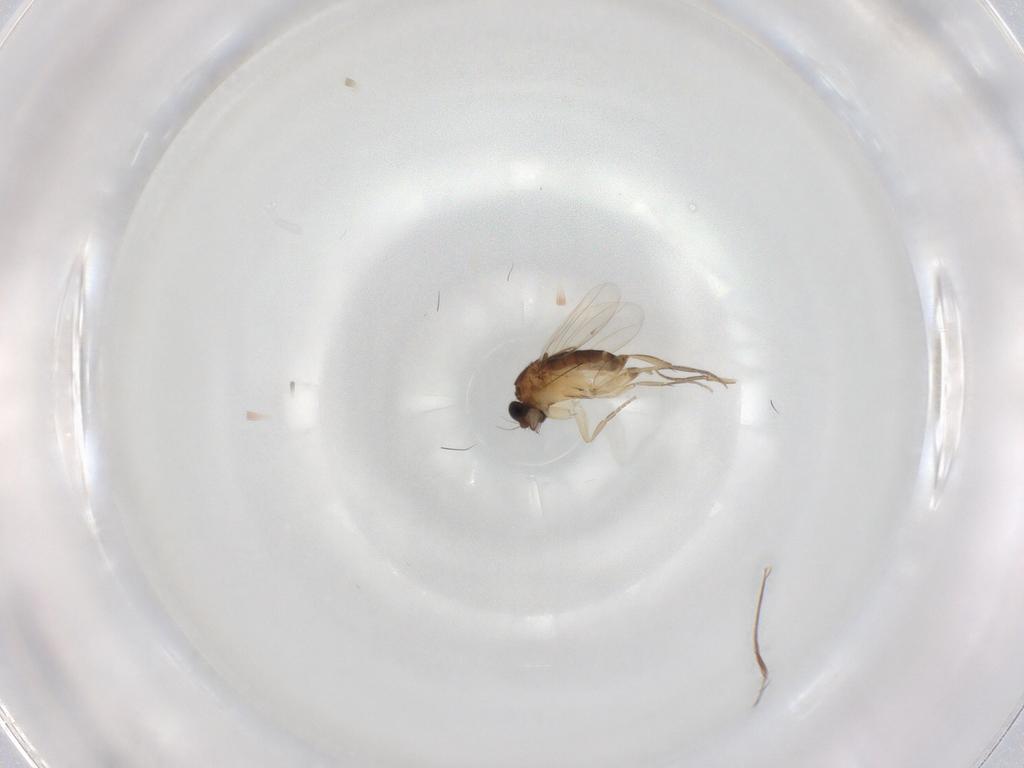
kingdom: Animalia
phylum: Arthropoda
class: Insecta
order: Diptera
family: Phoridae
